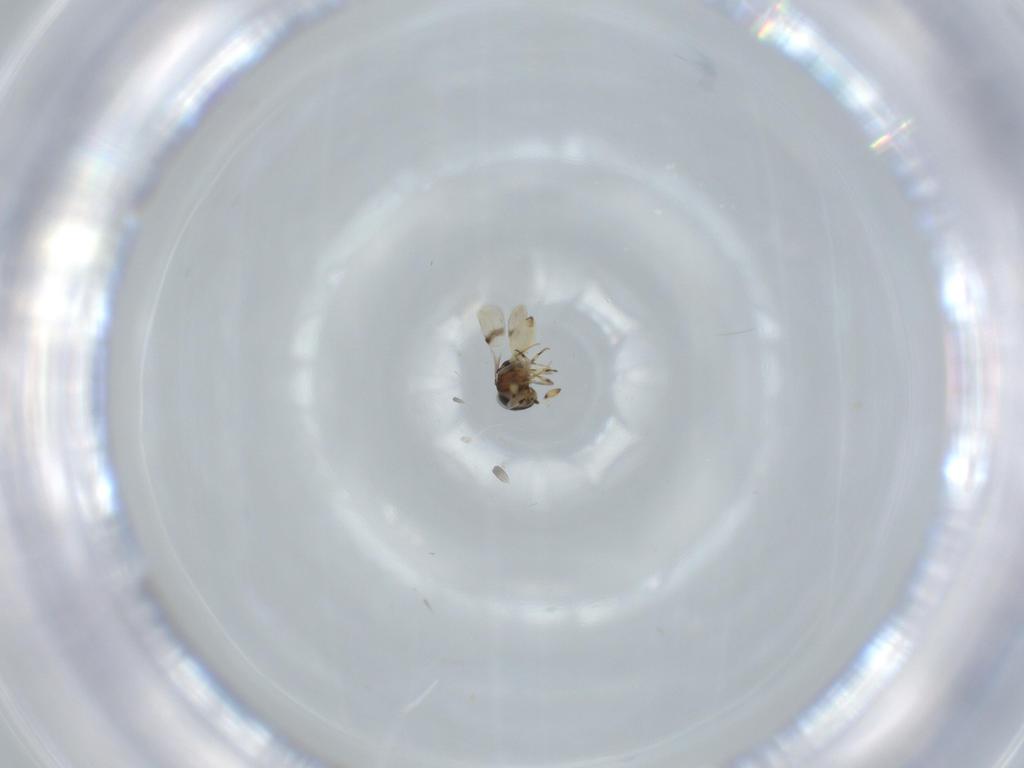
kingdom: Animalia
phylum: Arthropoda
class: Insecta
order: Hymenoptera
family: Scelionidae
